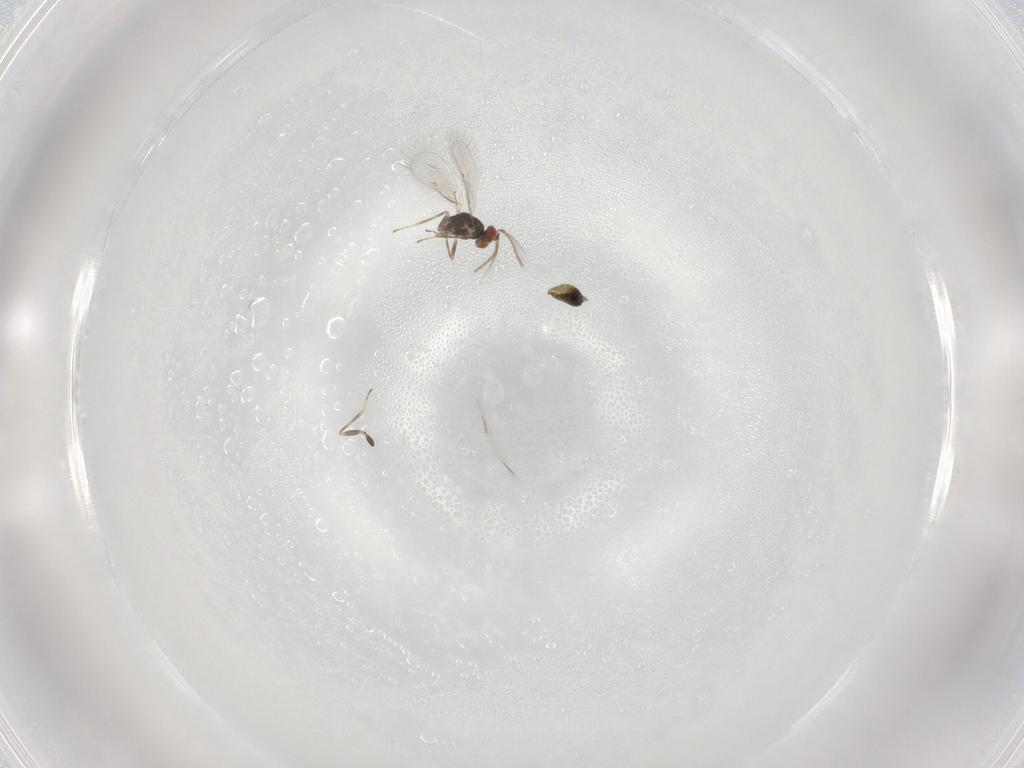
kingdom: Animalia
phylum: Arthropoda
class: Insecta
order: Hymenoptera
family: Eulophidae
